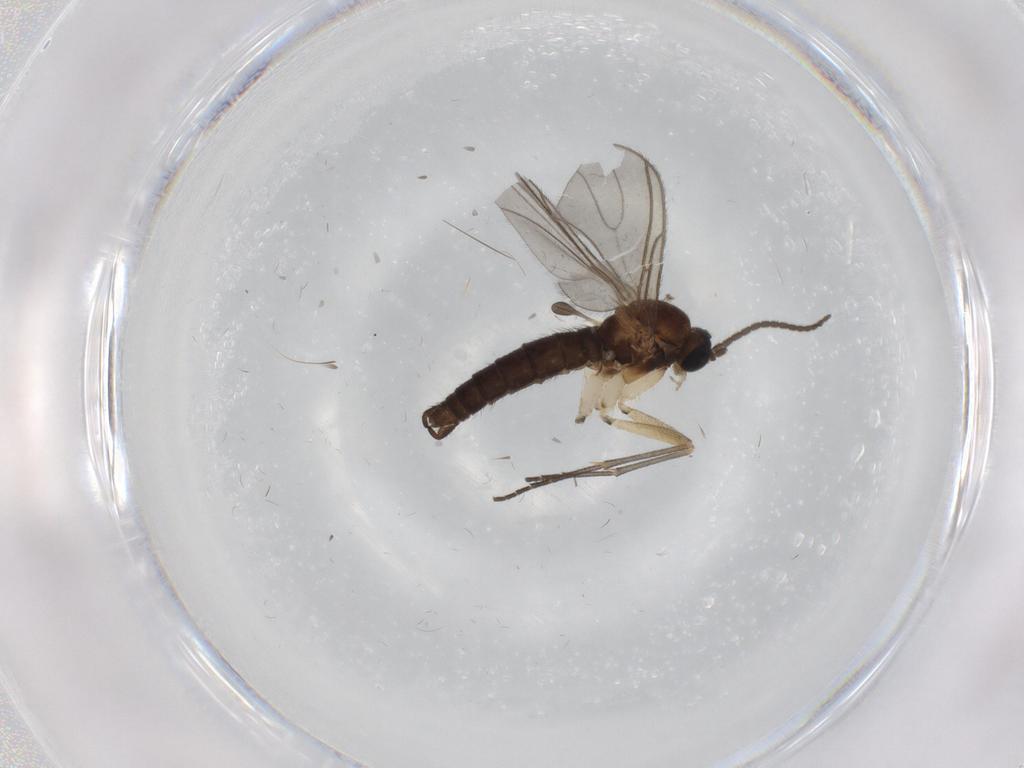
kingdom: Animalia
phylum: Arthropoda
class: Insecta
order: Diptera
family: Sciaridae
